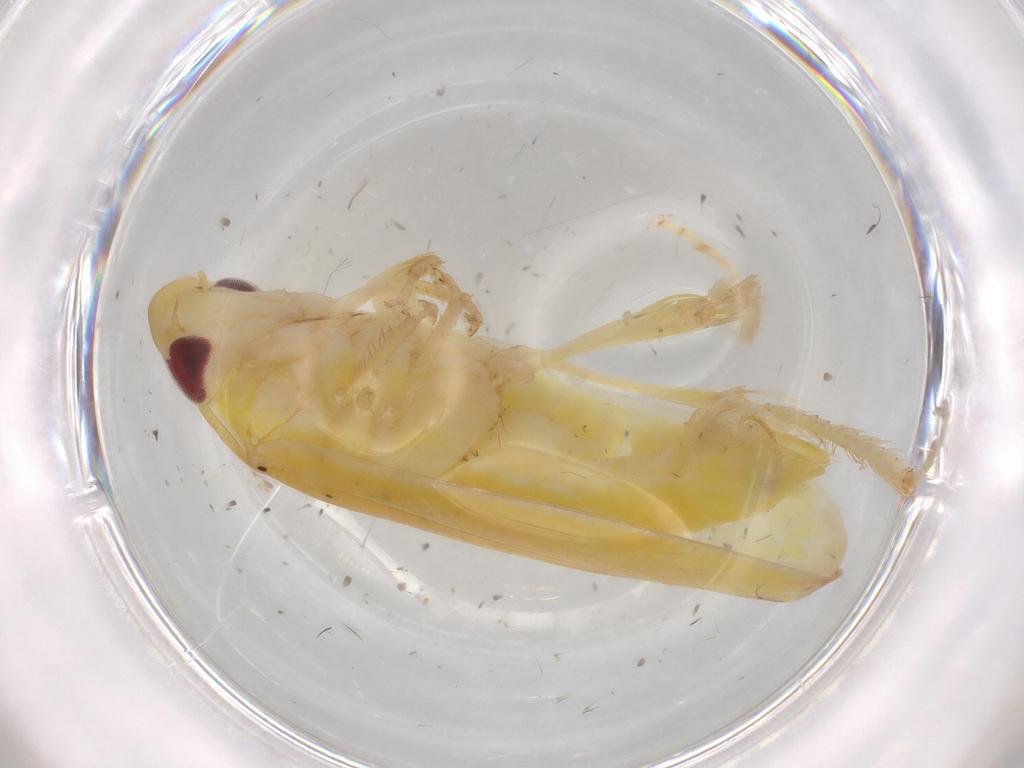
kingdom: Animalia
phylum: Arthropoda
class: Insecta
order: Hemiptera
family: Cicadellidae
